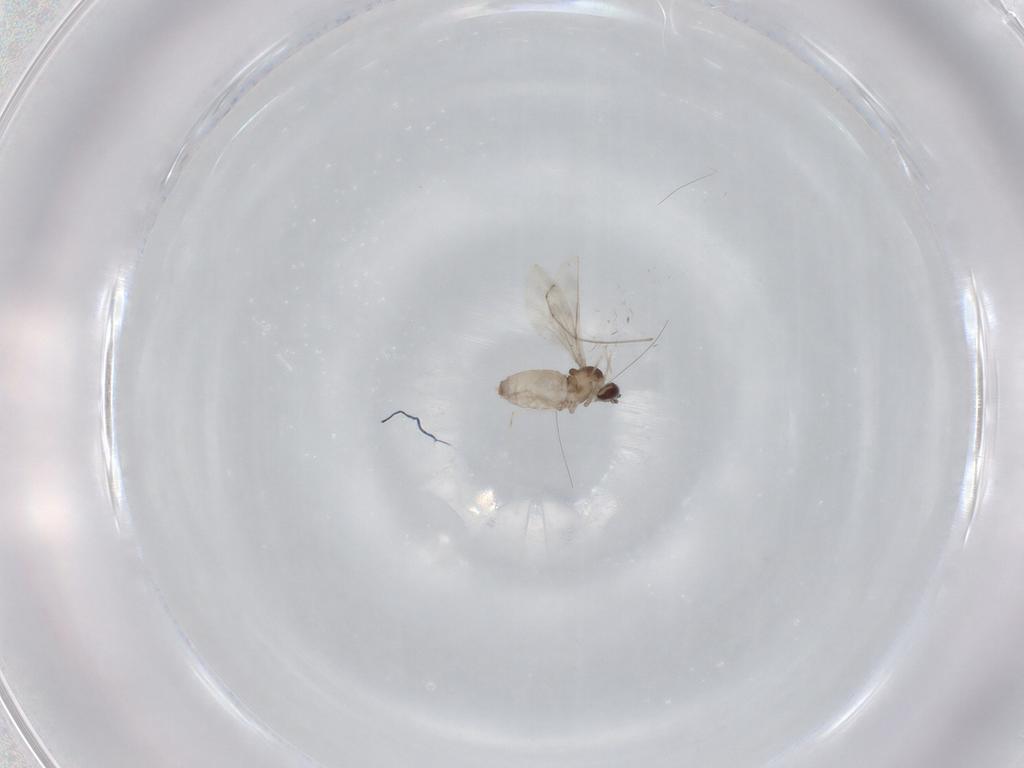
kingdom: Animalia
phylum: Arthropoda
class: Insecta
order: Diptera
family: Cecidomyiidae
